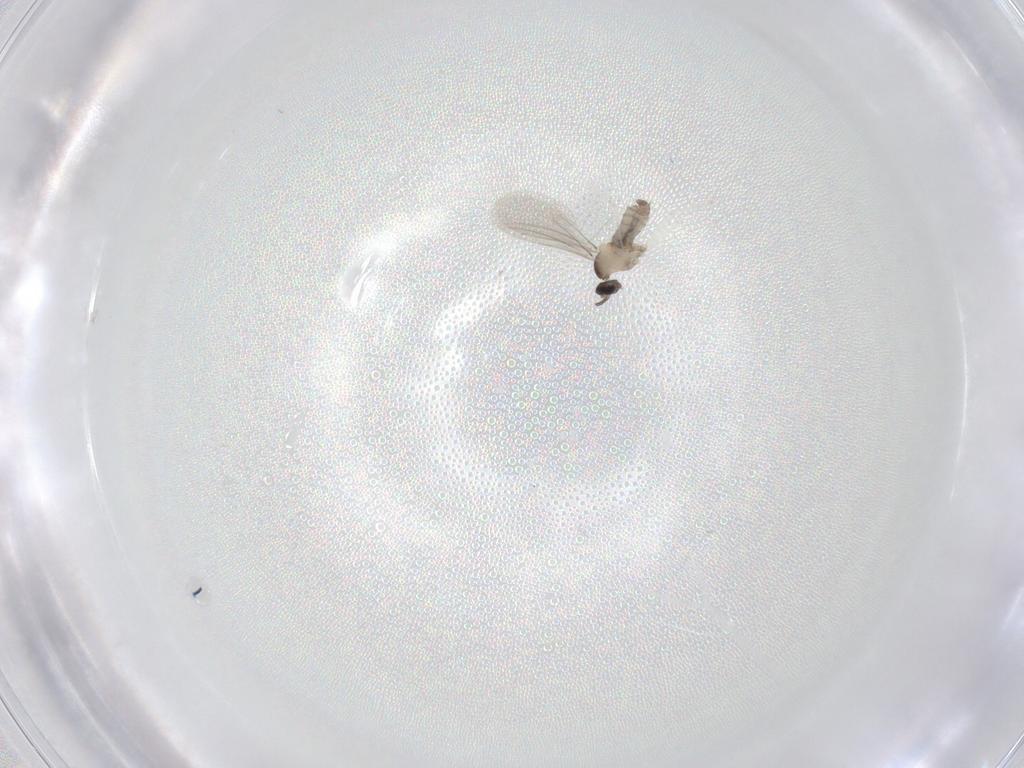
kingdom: Animalia
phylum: Arthropoda
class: Insecta
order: Diptera
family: Cecidomyiidae
